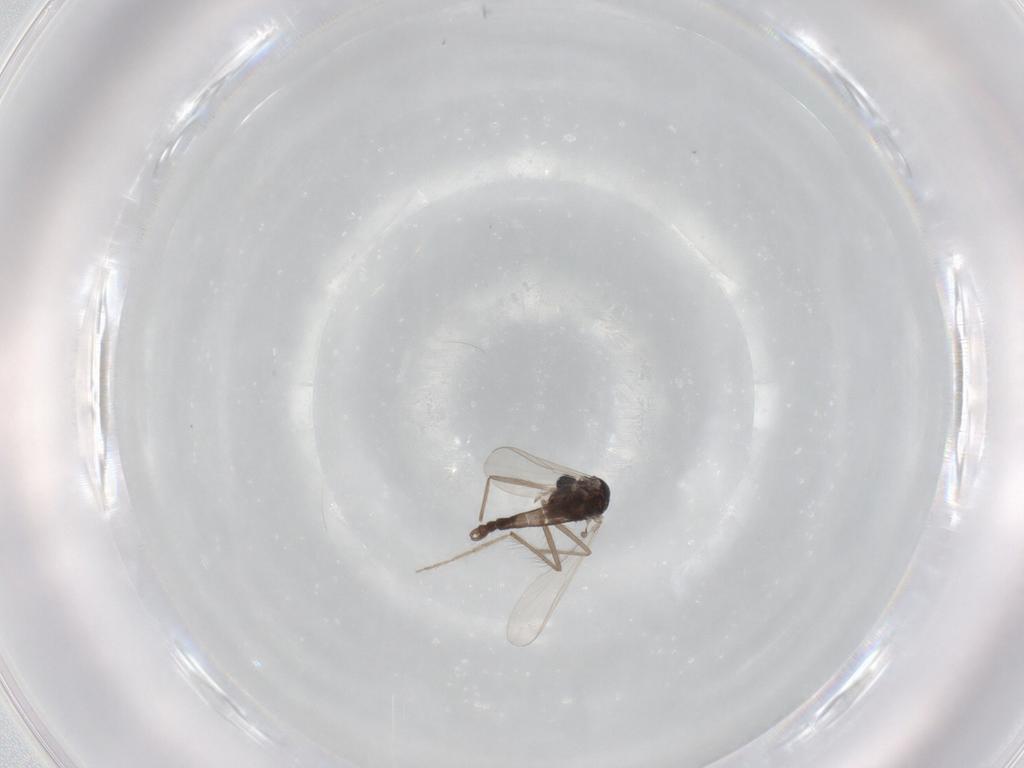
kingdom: Animalia
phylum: Arthropoda
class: Insecta
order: Diptera
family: Chironomidae
